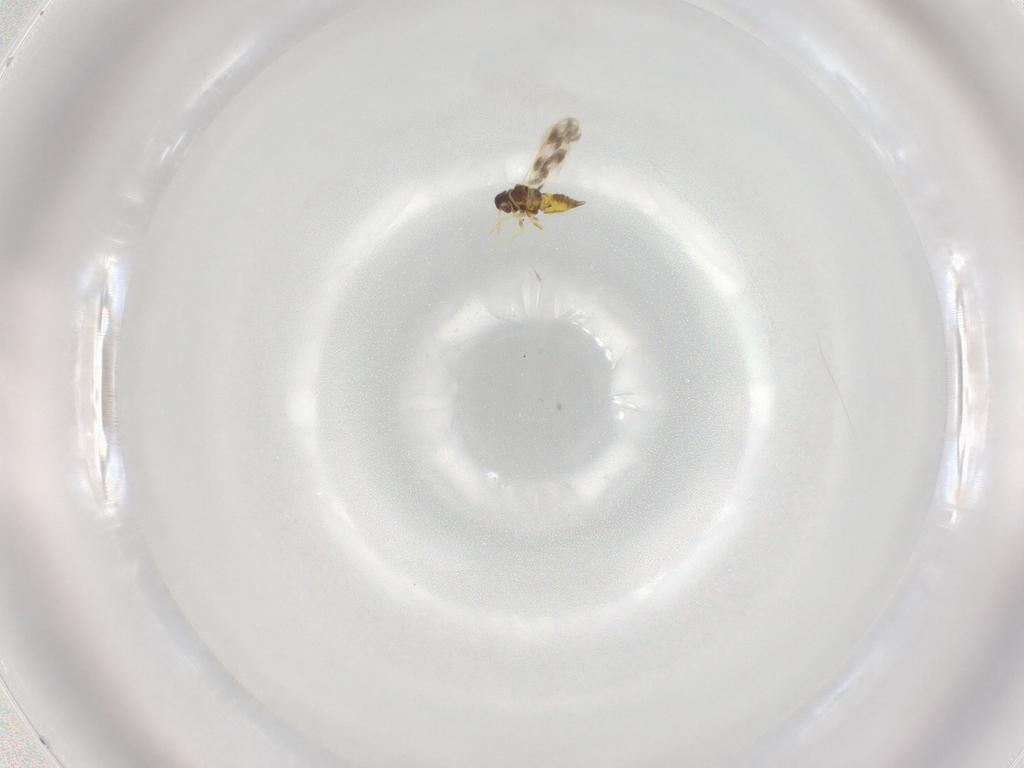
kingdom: Animalia
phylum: Arthropoda
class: Insecta
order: Hemiptera
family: Aleyrodidae
